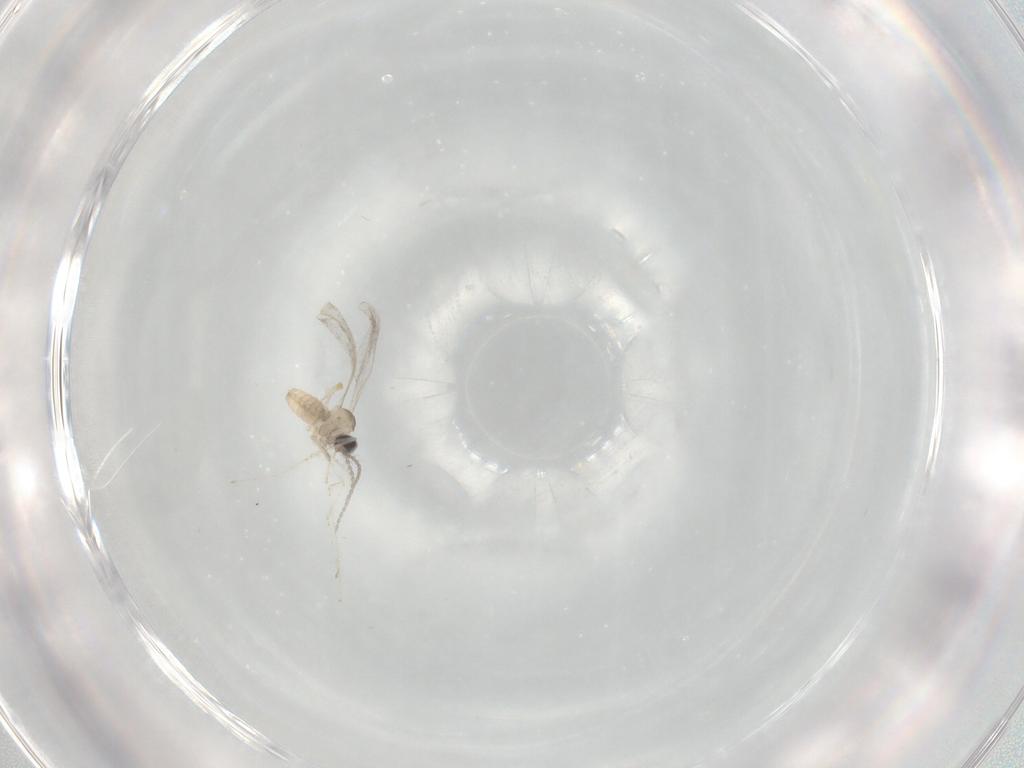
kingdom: Animalia
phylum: Arthropoda
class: Insecta
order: Diptera
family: Cecidomyiidae
